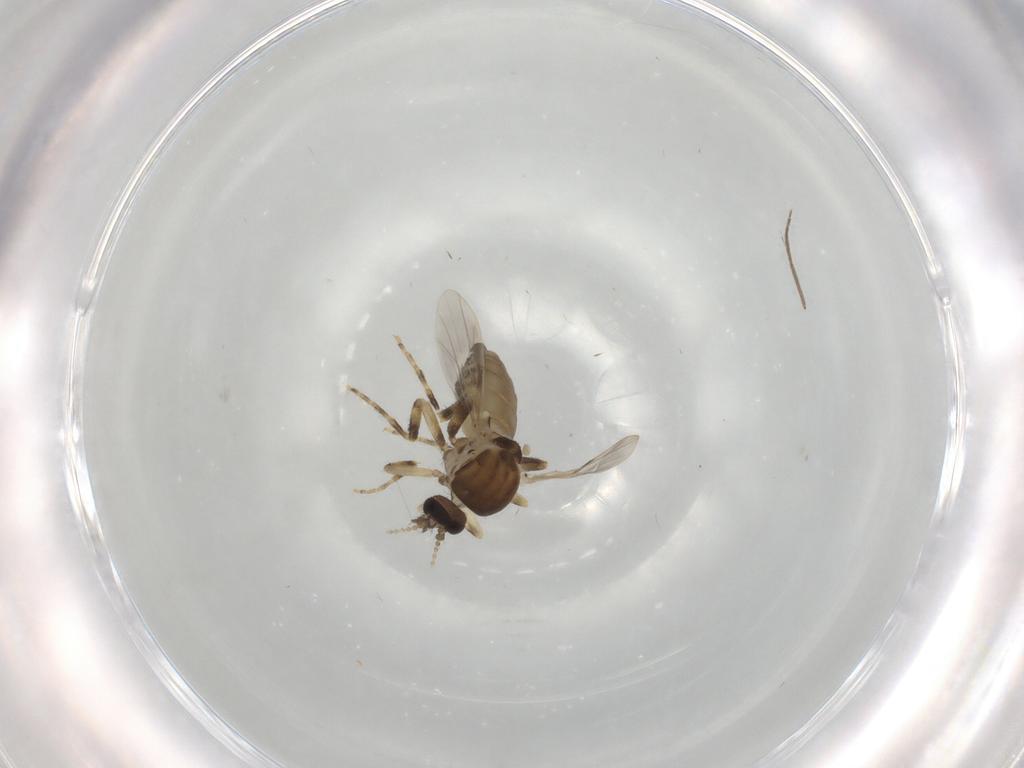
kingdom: Animalia
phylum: Arthropoda
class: Insecta
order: Diptera
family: Ceratopogonidae
